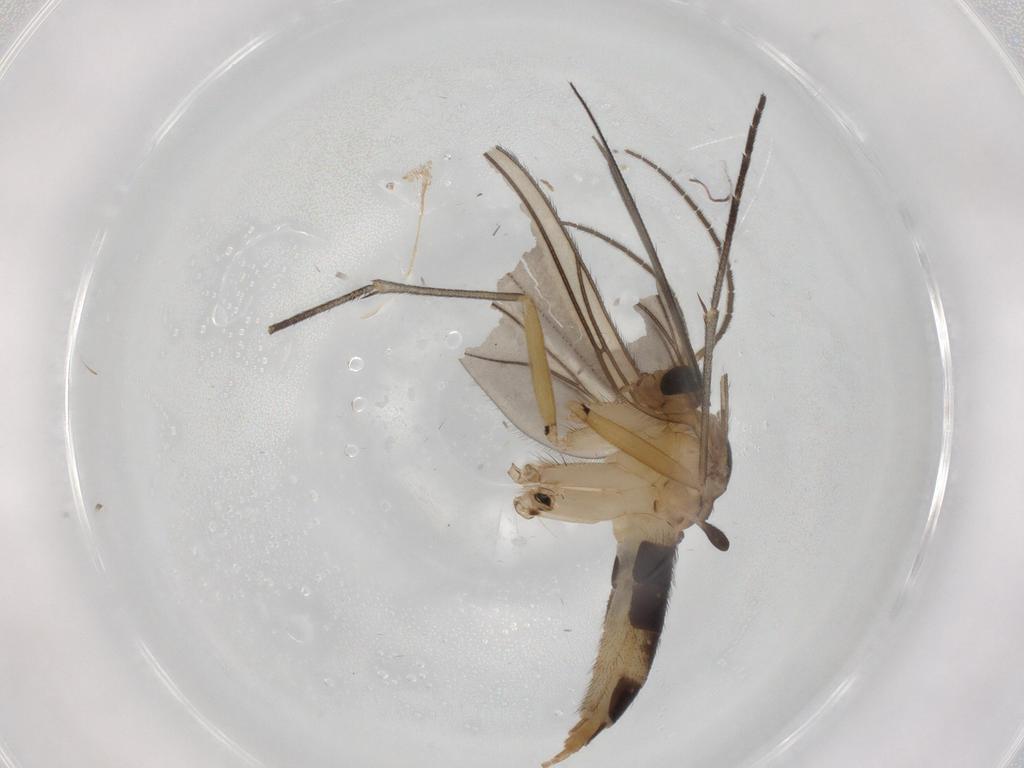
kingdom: Animalia
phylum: Arthropoda
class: Insecta
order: Diptera
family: Sciaridae
